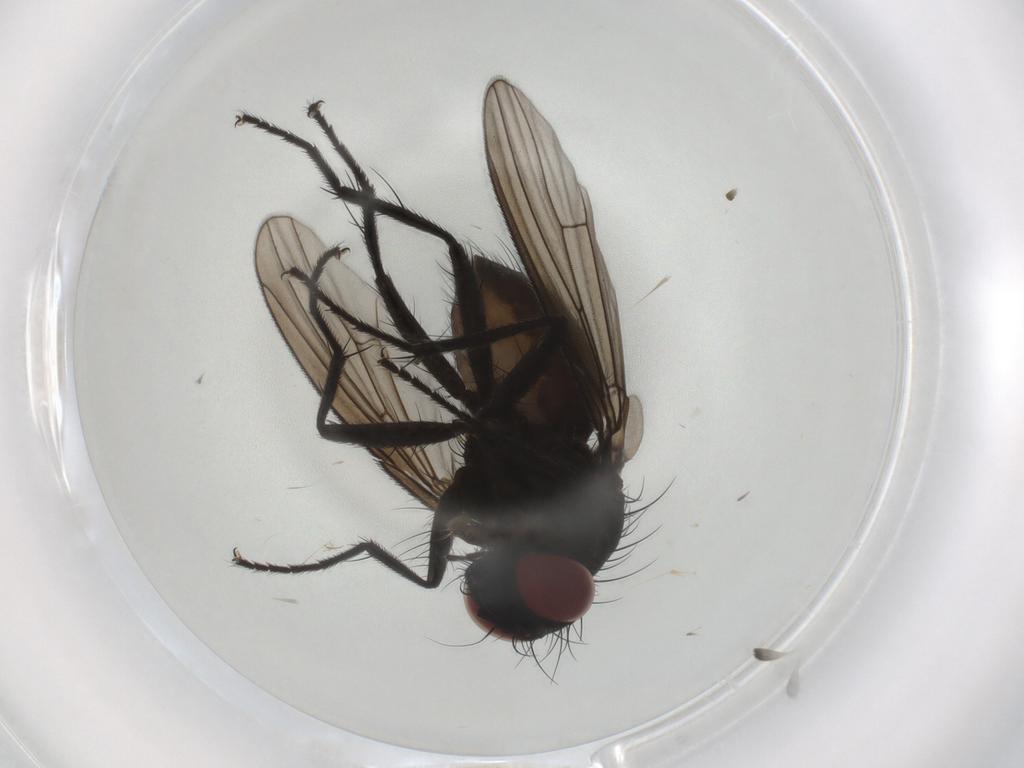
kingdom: Animalia
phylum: Arthropoda
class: Insecta
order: Diptera
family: Muscidae
